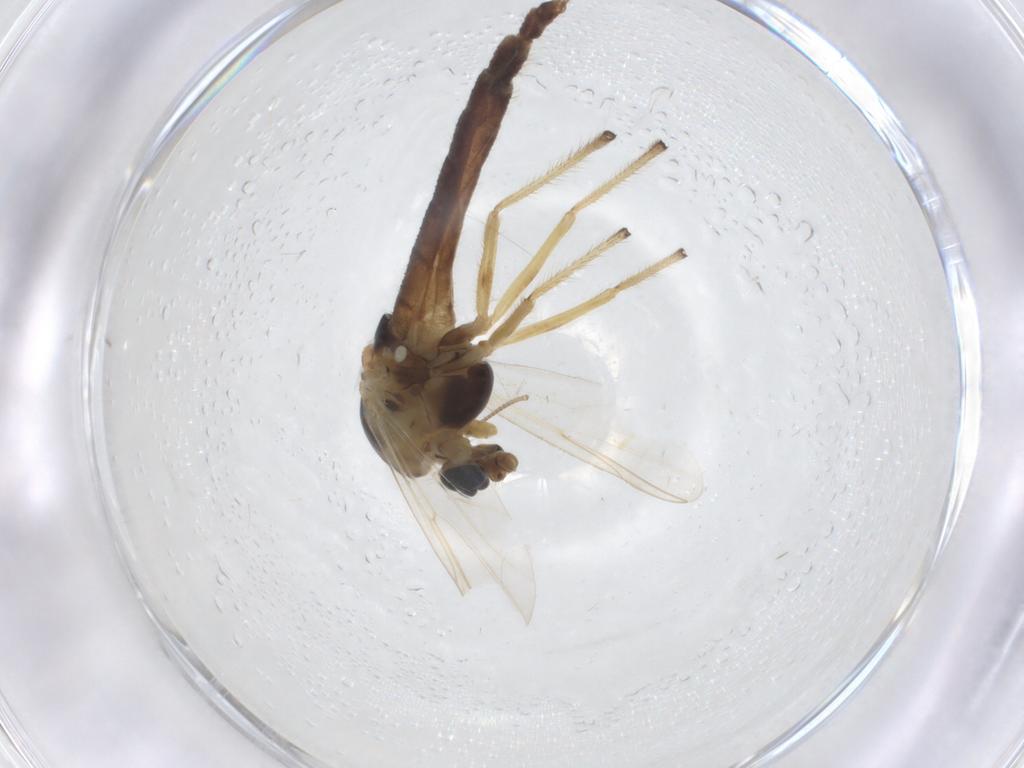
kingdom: Animalia
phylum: Arthropoda
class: Insecta
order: Diptera
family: Chironomidae
